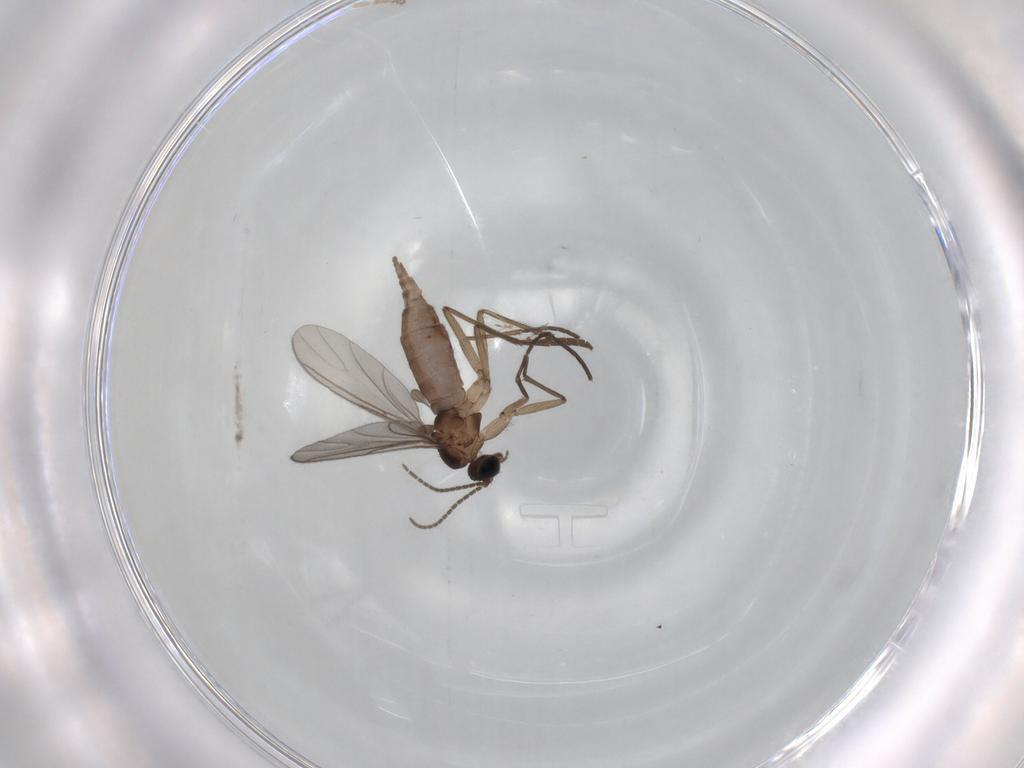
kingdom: Animalia
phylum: Arthropoda
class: Insecta
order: Diptera
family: Sciaridae
